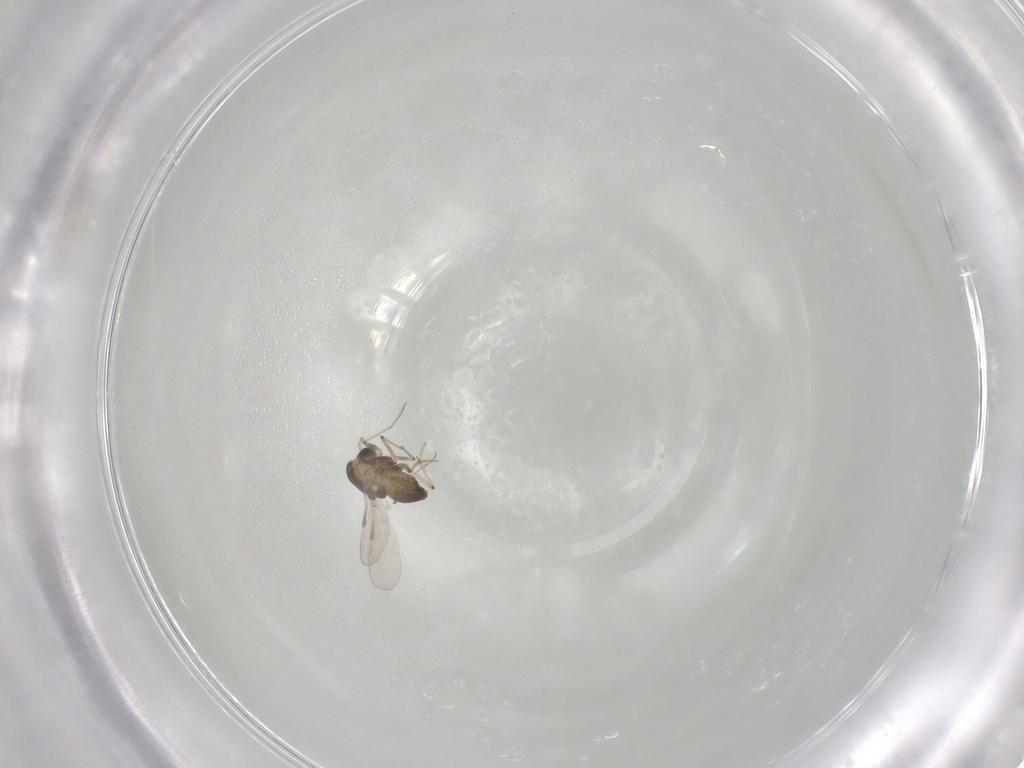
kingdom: Animalia
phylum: Arthropoda
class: Insecta
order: Diptera
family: Chironomidae
